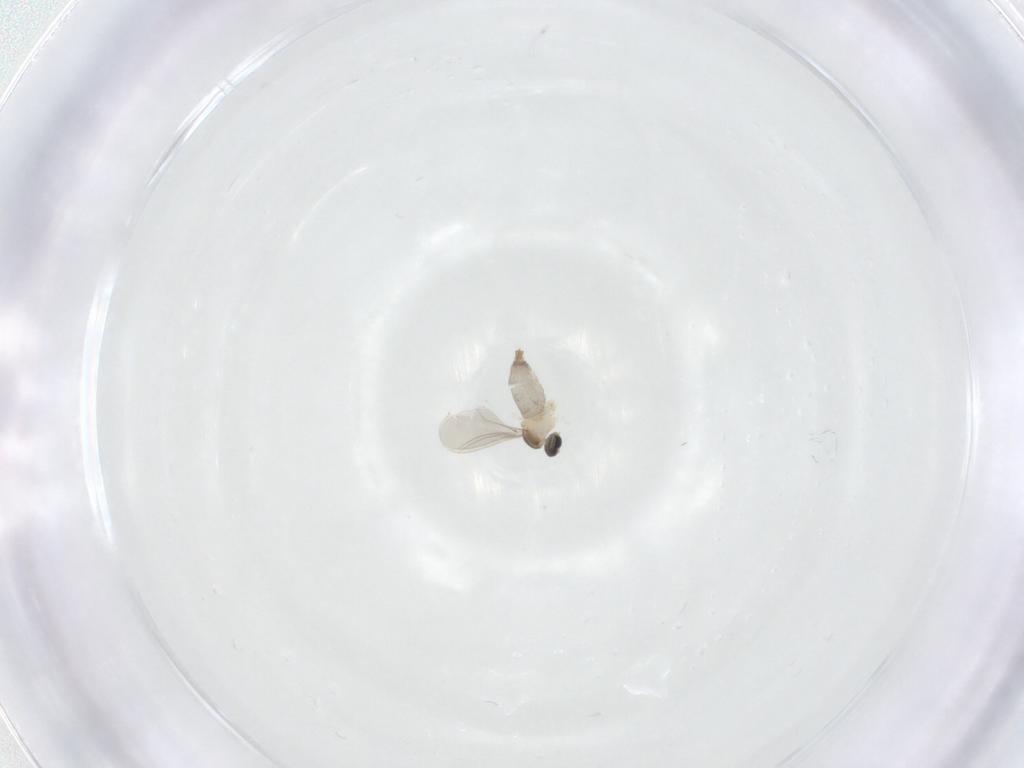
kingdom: Animalia
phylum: Arthropoda
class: Insecta
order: Diptera
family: Cecidomyiidae
